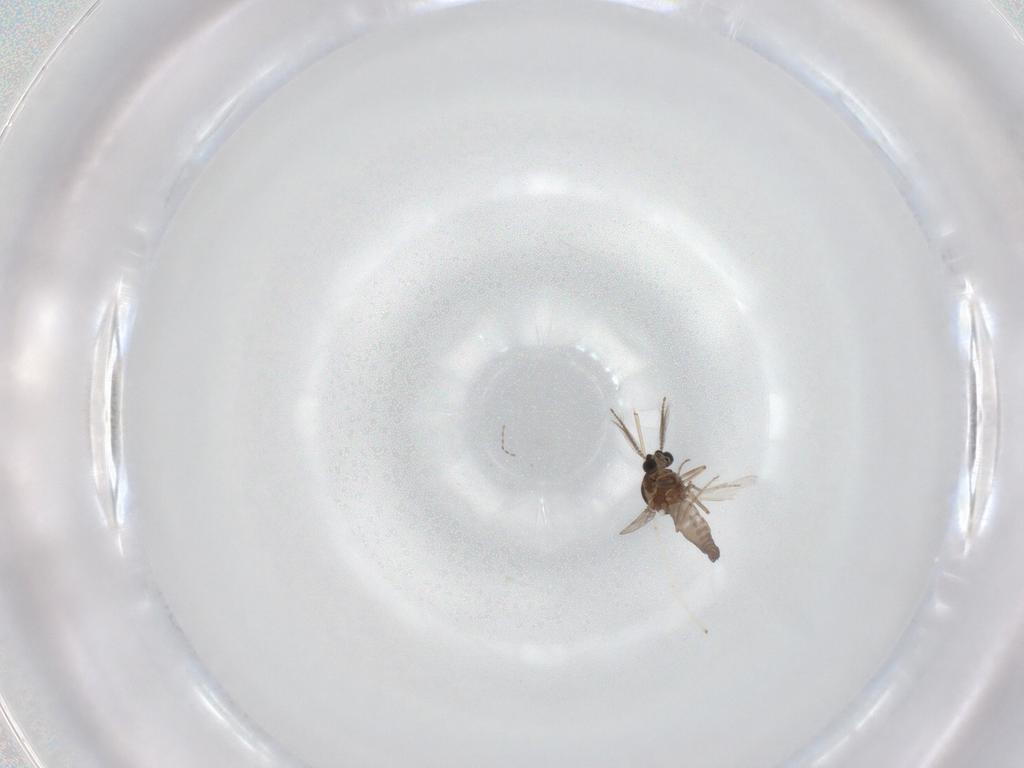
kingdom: Animalia
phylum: Arthropoda
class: Insecta
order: Diptera
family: Ceratopogonidae
